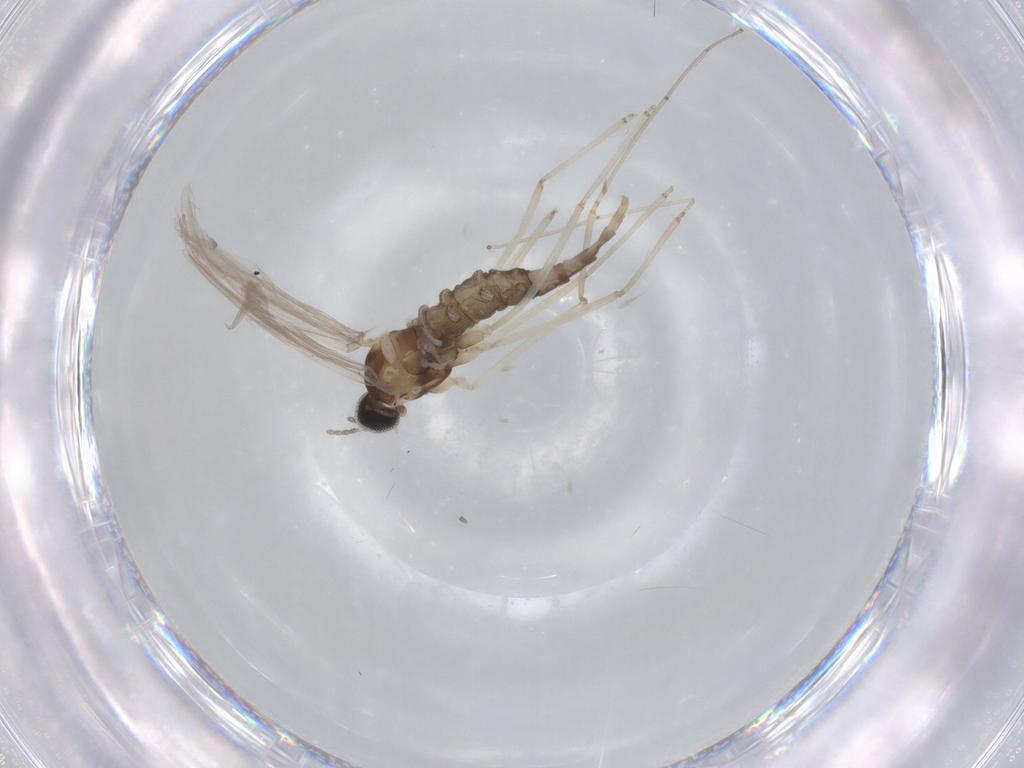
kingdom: Animalia
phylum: Arthropoda
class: Insecta
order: Diptera
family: Cecidomyiidae
